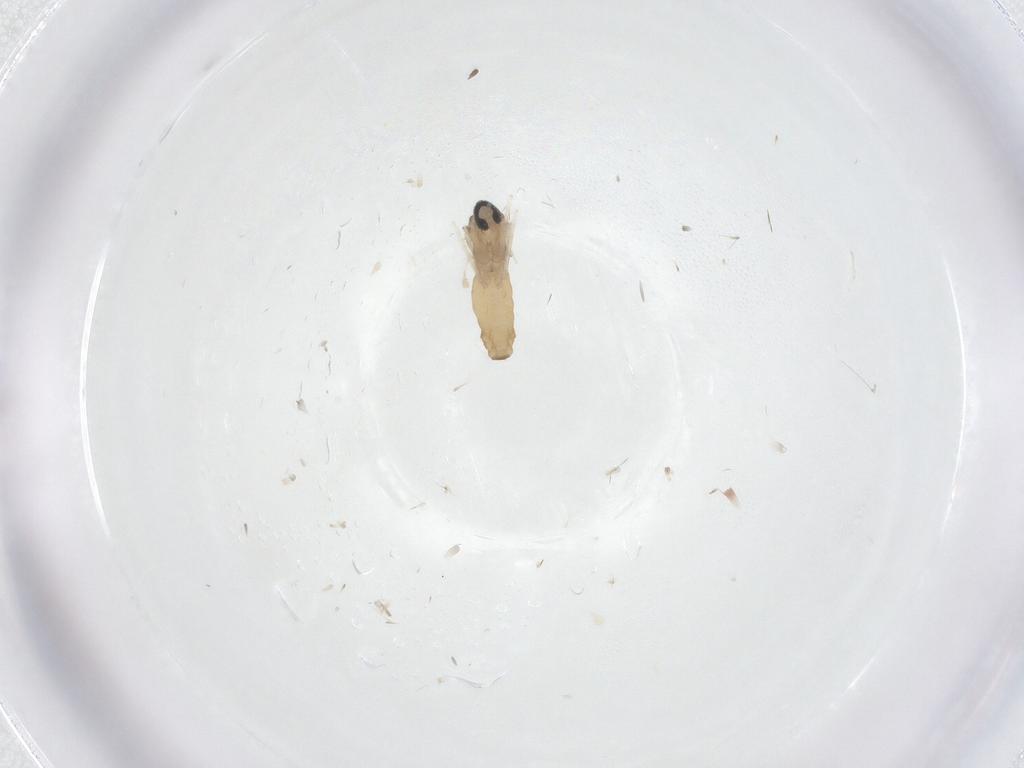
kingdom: Animalia
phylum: Arthropoda
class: Insecta
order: Diptera
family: Cecidomyiidae
